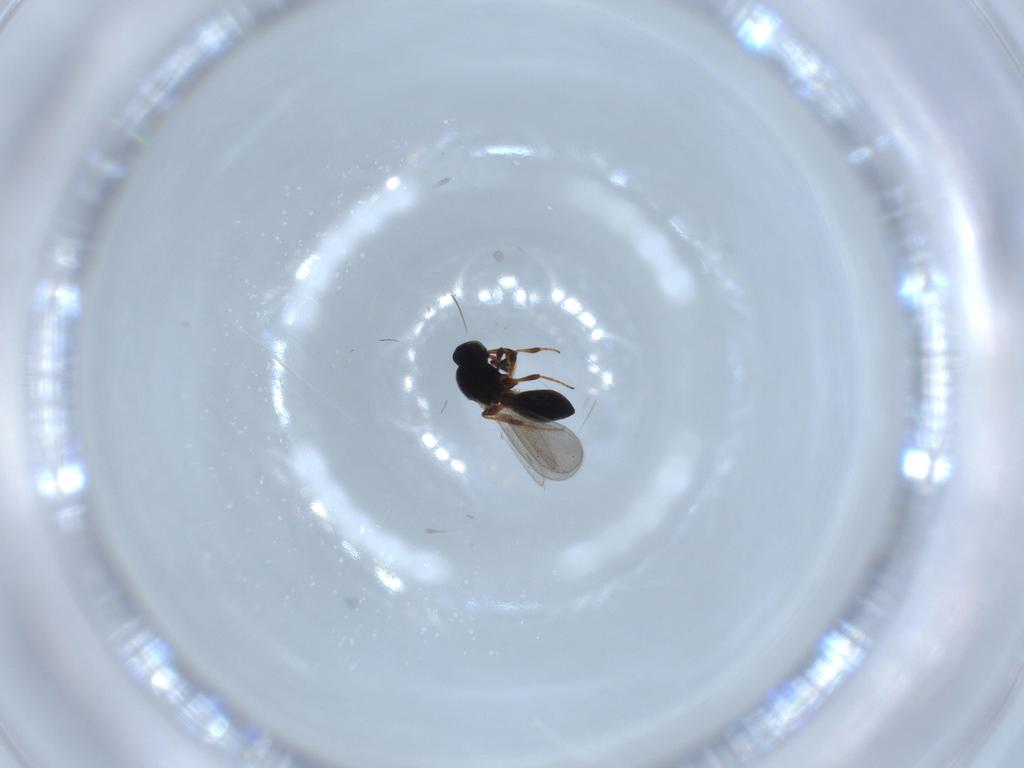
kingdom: Animalia
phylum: Arthropoda
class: Insecta
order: Hymenoptera
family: Platygastridae
